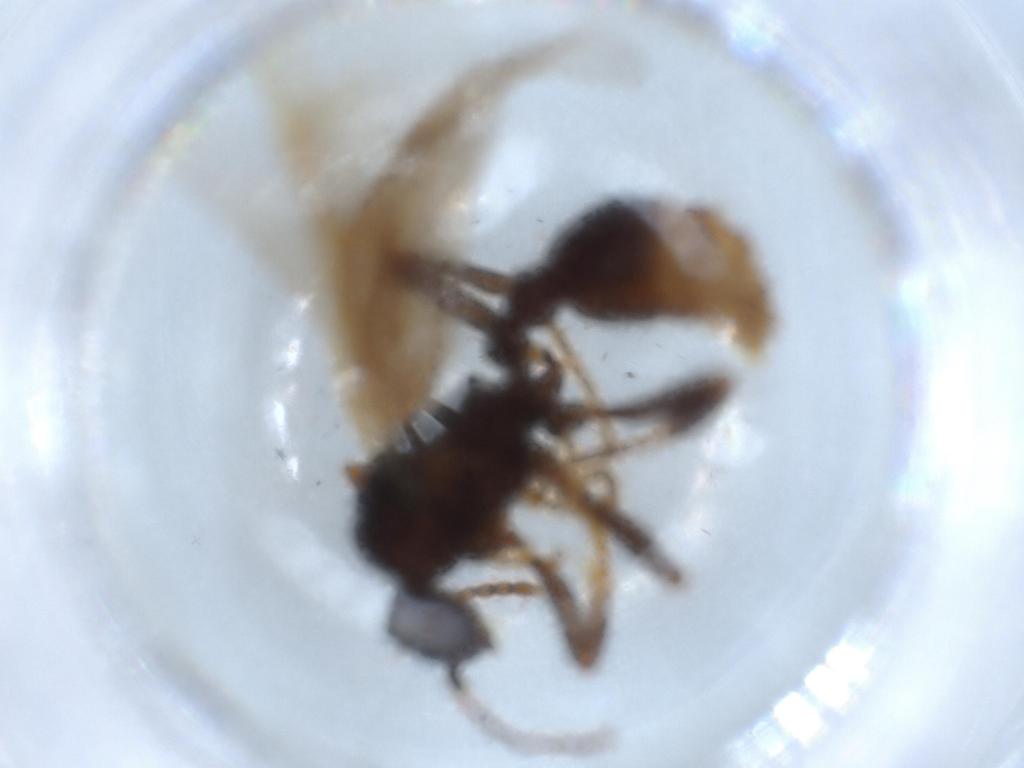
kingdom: Animalia
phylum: Arthropoda
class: Insecta
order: Hymenoptera
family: Formicidae
